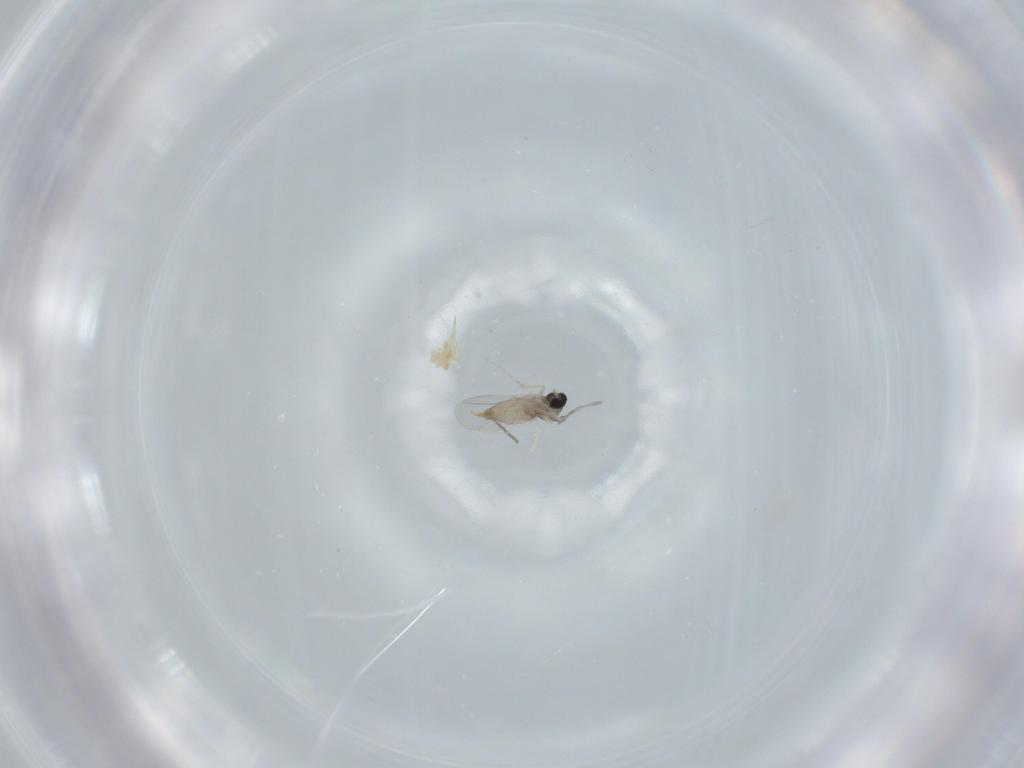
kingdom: Animalia
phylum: Arthropoda
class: Insecta
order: Diptera
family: Cecidomyiidae
